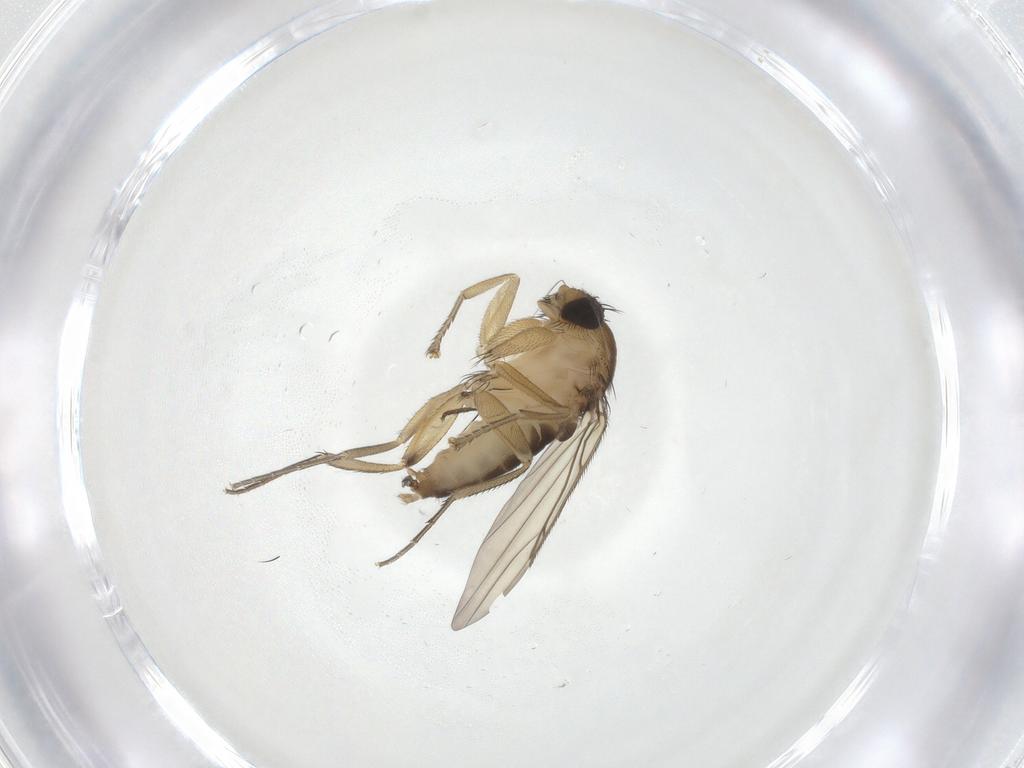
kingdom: Animalia
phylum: Arthropoda
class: Insecta
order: Diptera
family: Phoridae
